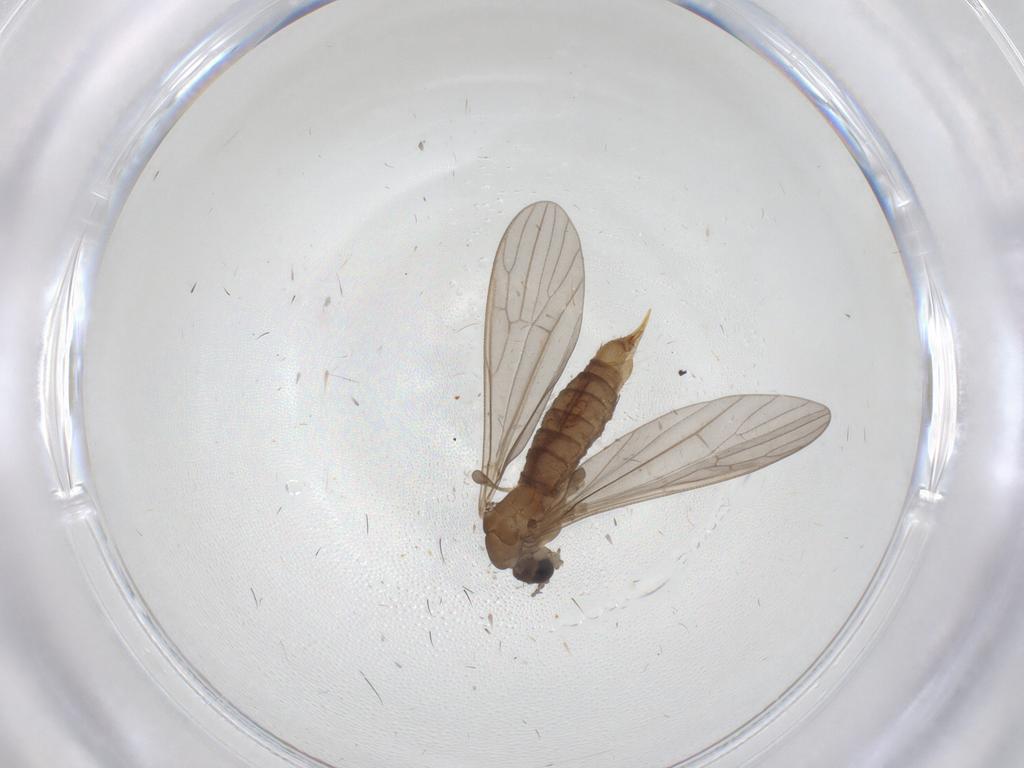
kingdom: Animalia
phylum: Arthropoda
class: Insecta
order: Diptera
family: Limoniidae
